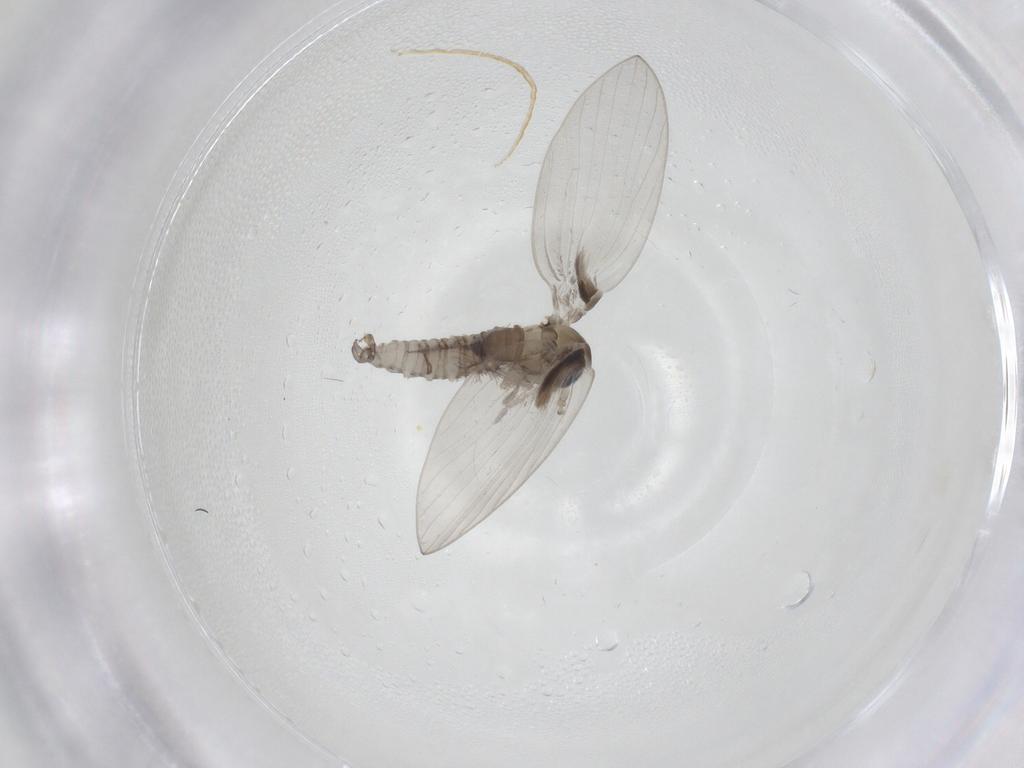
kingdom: Animalia
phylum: Arthropoda
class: Insecta
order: Diptera
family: Psychodidae
